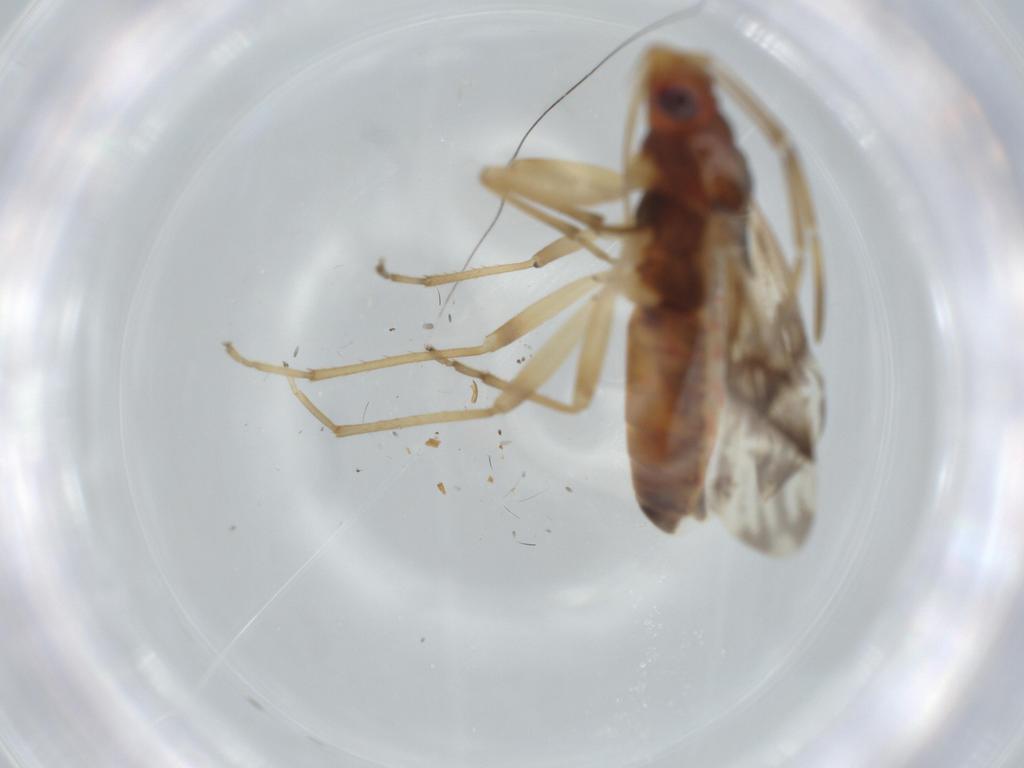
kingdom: Animalia
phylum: Arthropoda
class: Insecta
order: Hemiptera
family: Rhyparochromidae
